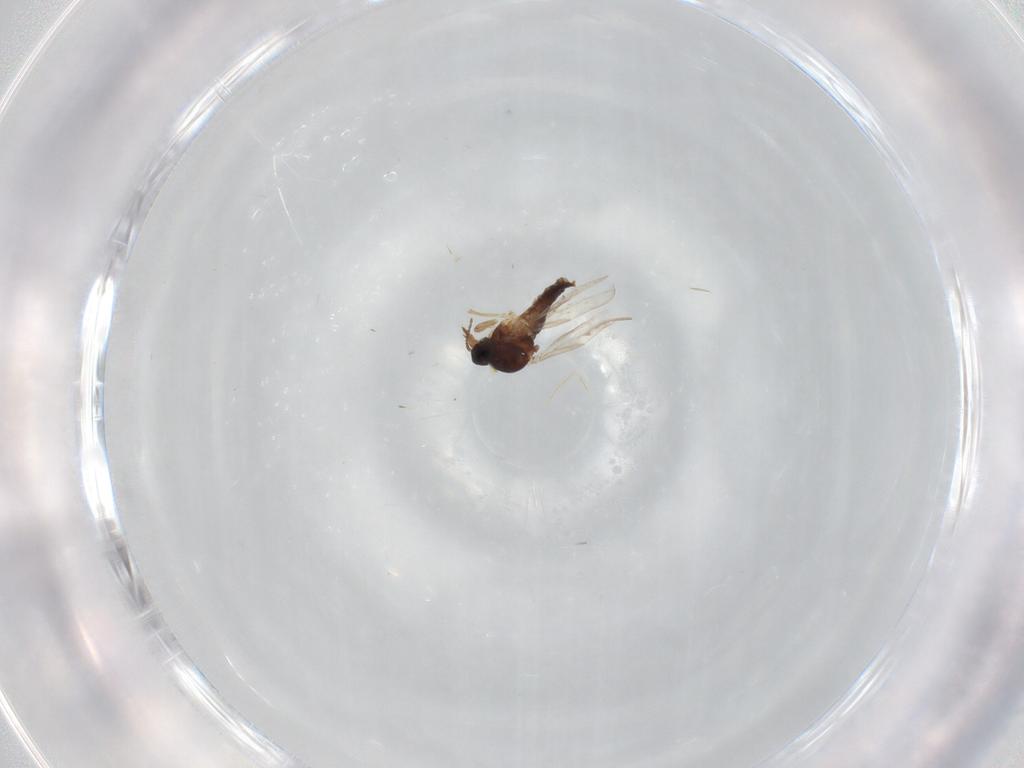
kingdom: Animalia
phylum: Arthropoda
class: Insecta
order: Diptera
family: Ceratopogonidae
